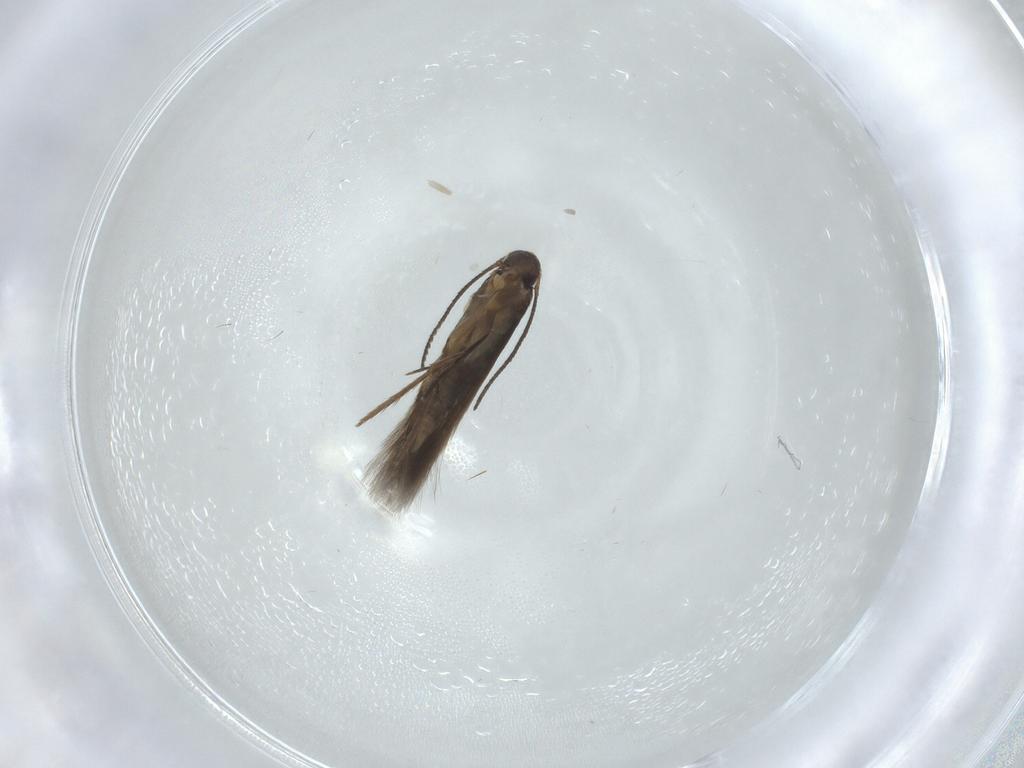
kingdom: Animalia
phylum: Arthropoda
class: Insecta
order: Lepidoptera
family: Crambidae
